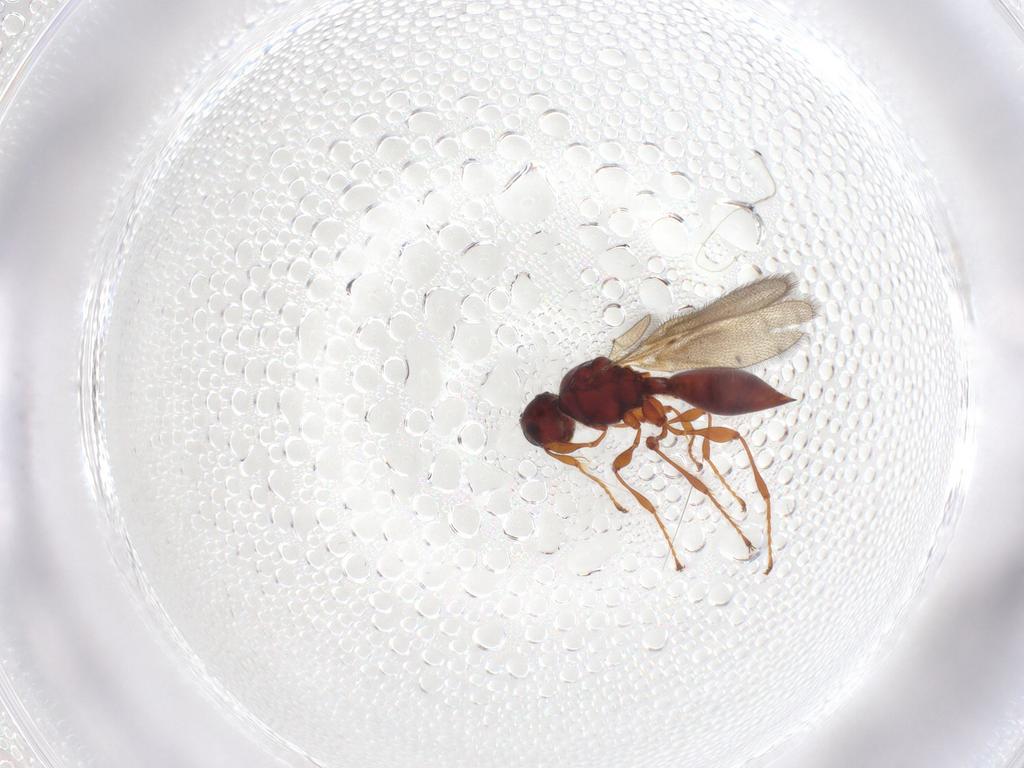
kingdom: Animalia
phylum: Arthropoda
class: Insecta
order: Hymenoptera
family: Diapriidae
